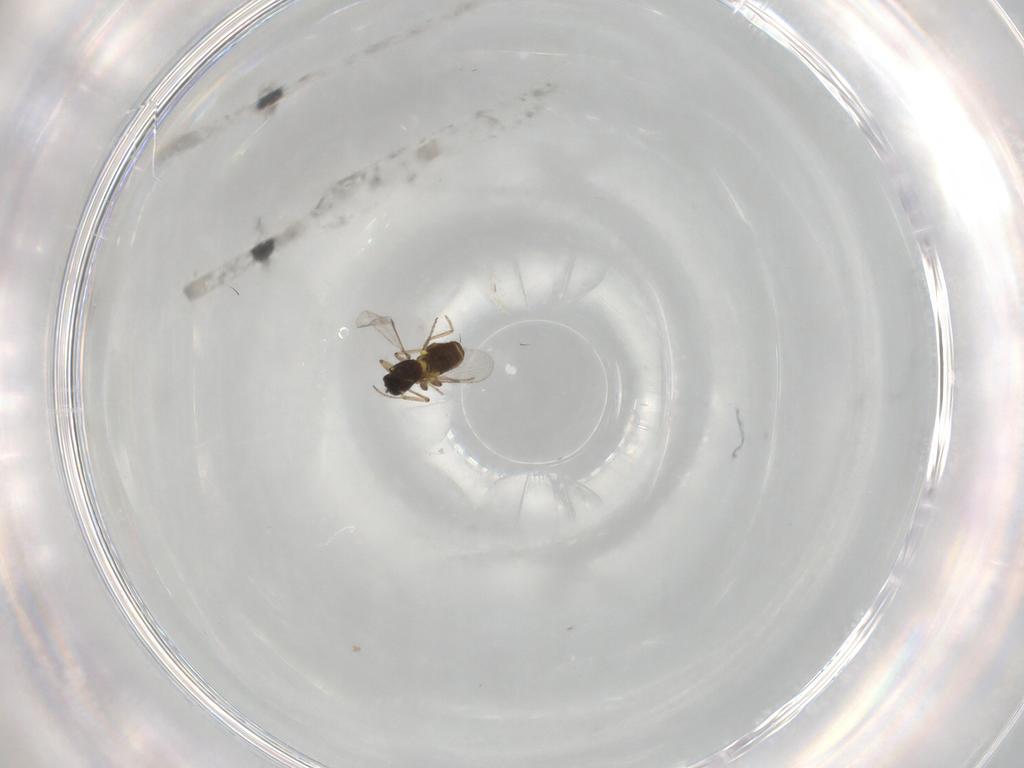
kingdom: Animalia
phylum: Arthropoda
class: Insecta
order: Diptera
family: Ceratopogonidae
